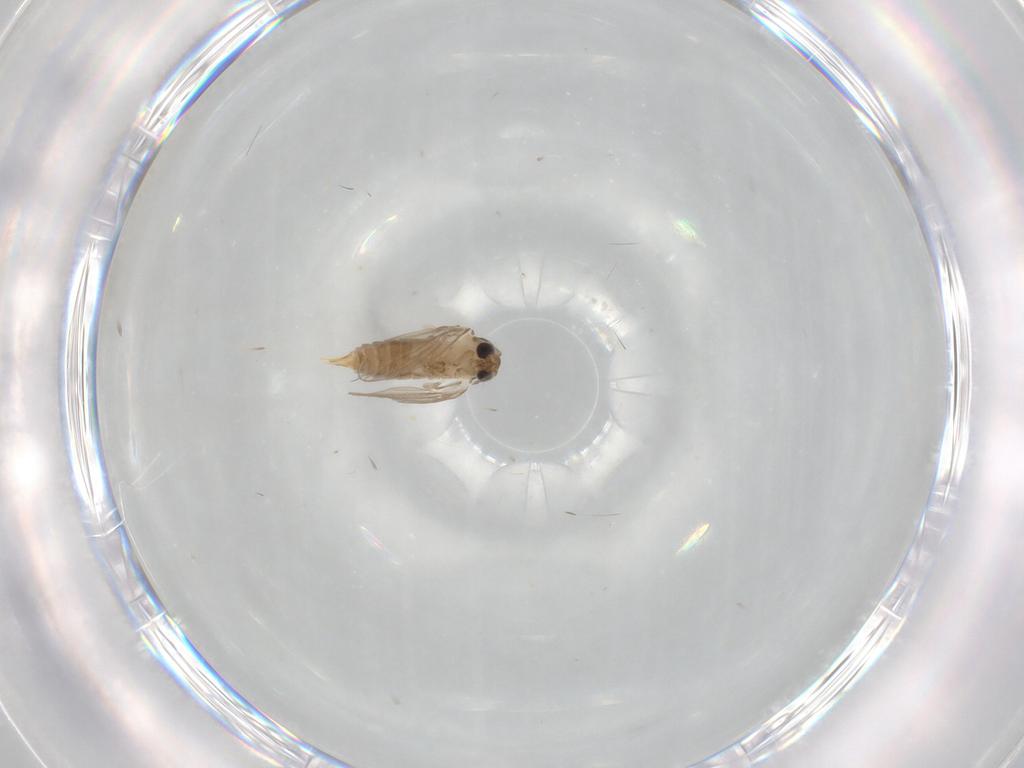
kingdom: Animalia
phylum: Arthropoda
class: Insecta
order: Diptera
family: Psychodidae
